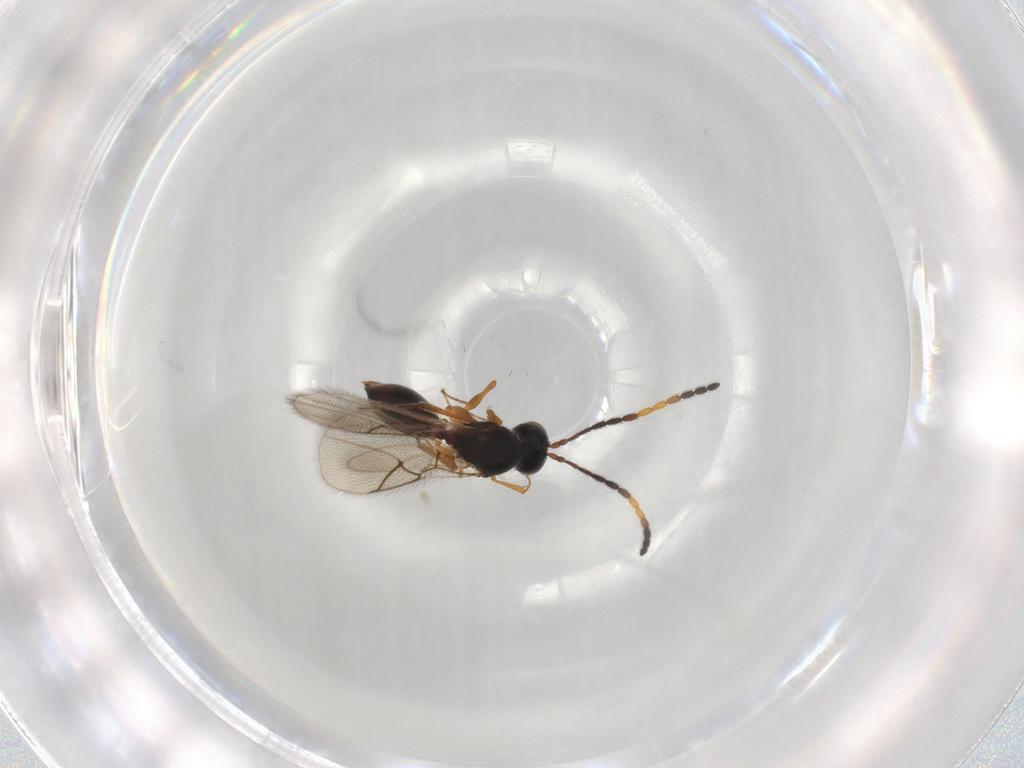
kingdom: Animalia
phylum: Arthropoda
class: Insecta
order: Hymenoptera
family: Figitidae
